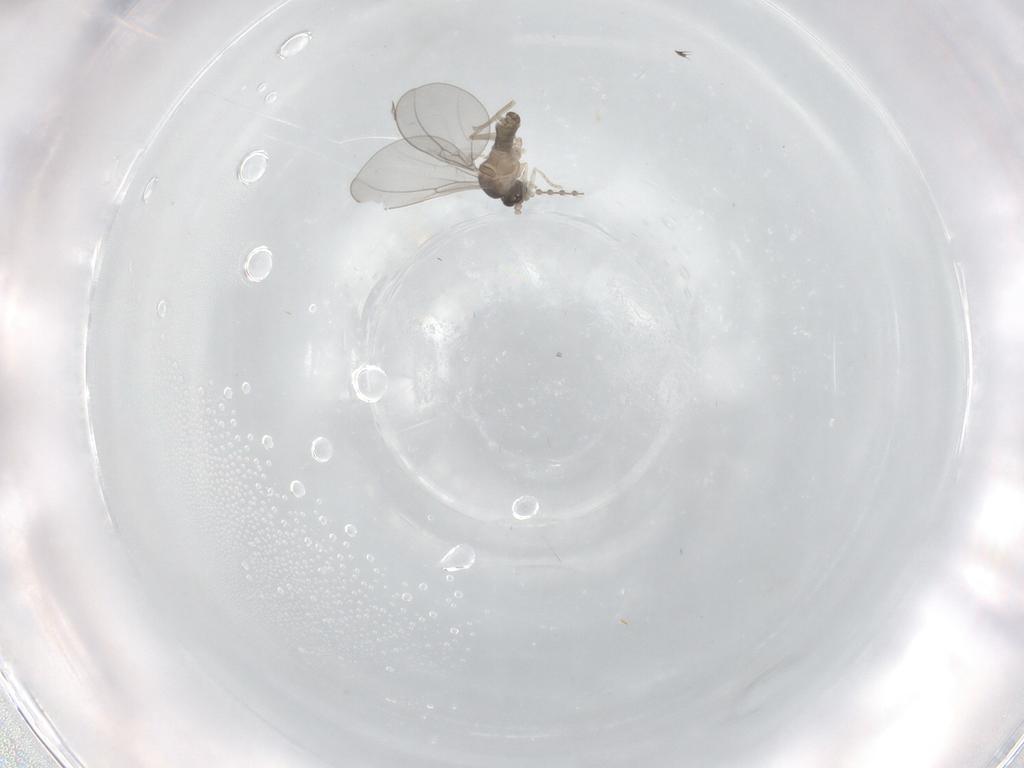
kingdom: Animalia
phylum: Arthropoda
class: Insecta
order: Diptera
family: Cecidomyiidae
